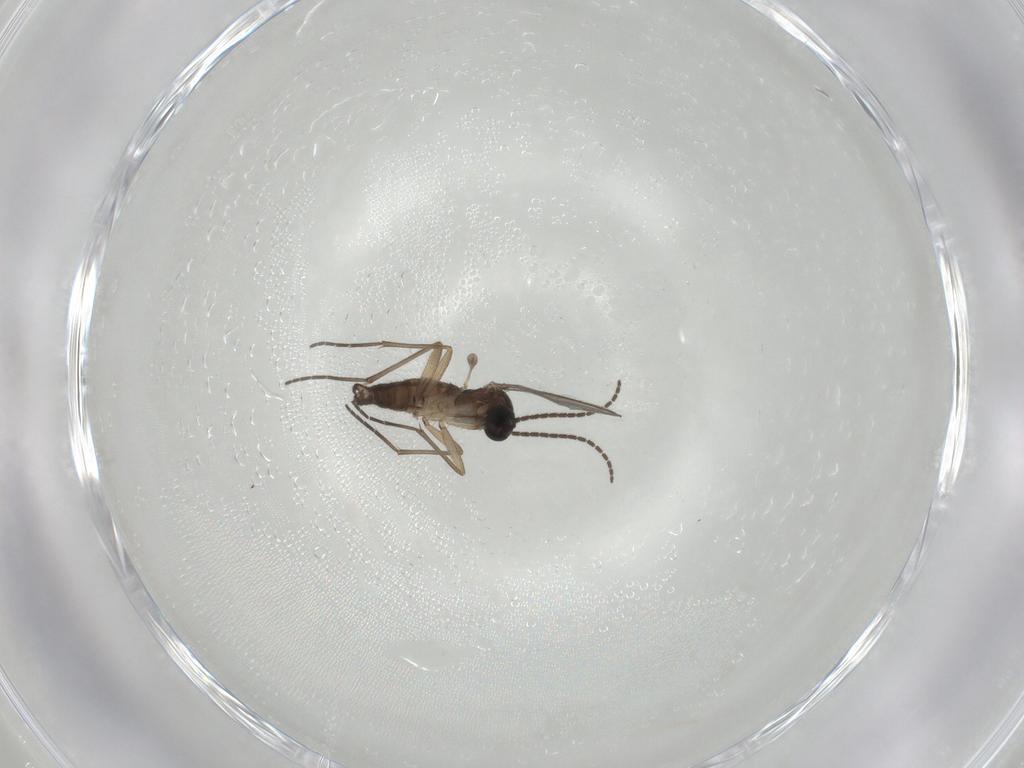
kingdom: Animalia
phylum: Arthropoda
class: Insecta
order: Diptera
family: Sciaridae
